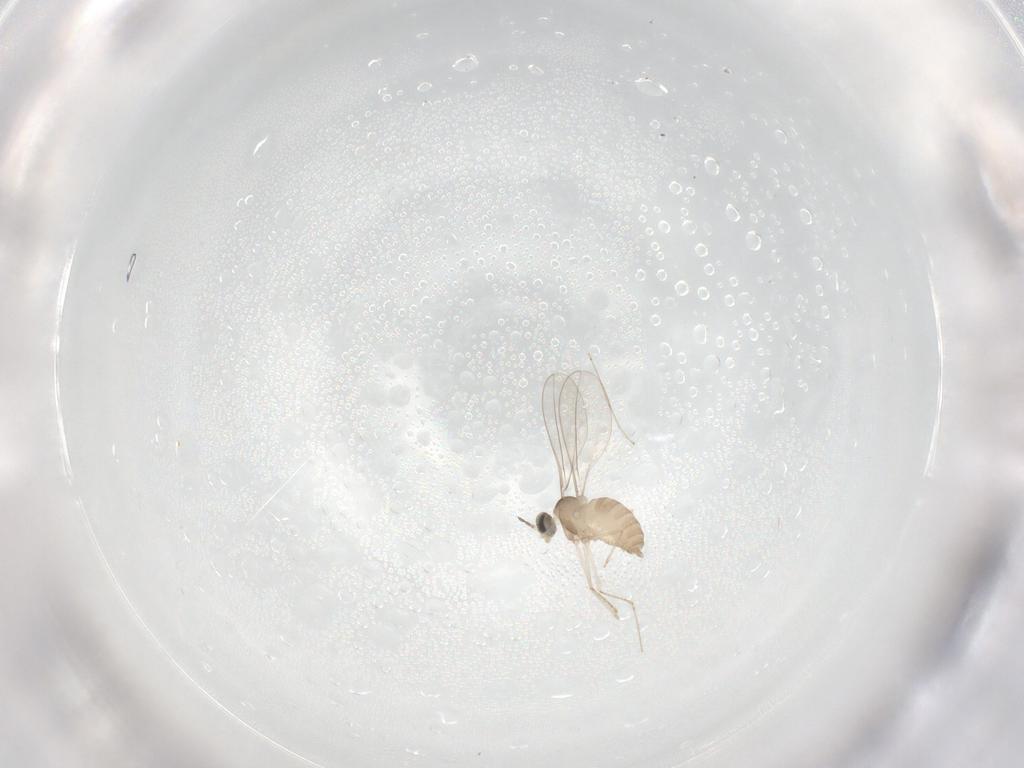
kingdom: Animalia
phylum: Arthropoda
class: Insecta
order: Diptera
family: Cecidomyiidae
